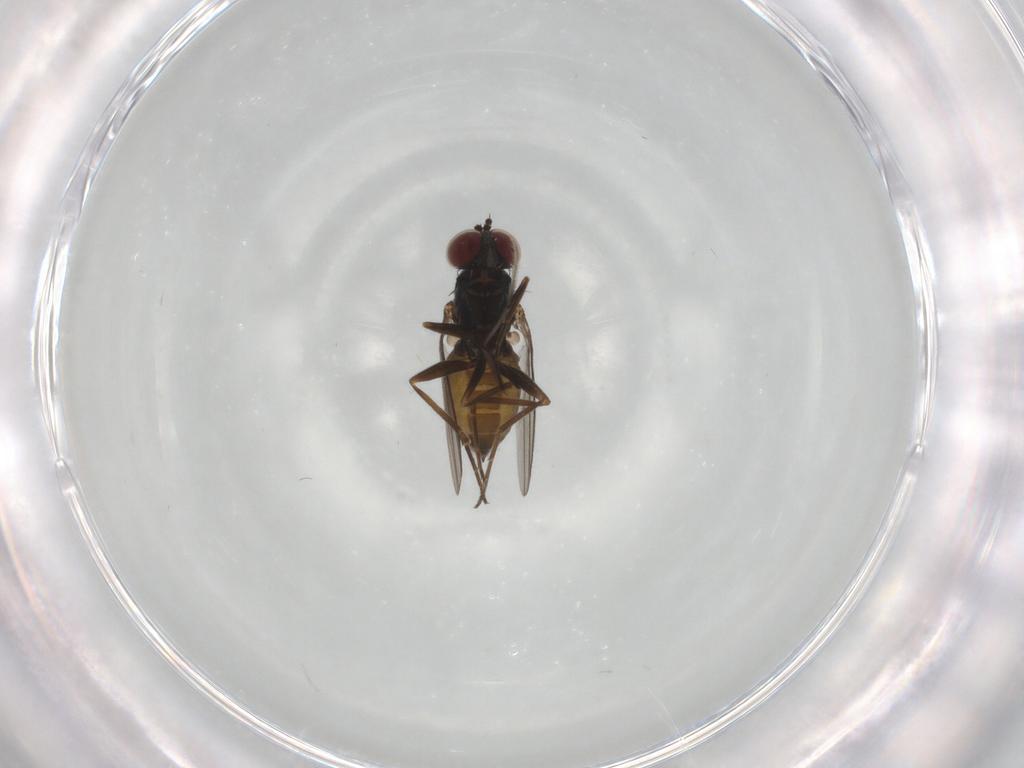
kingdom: Animalia
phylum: Arthropoda
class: Insecta
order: Diptera
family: Dolichopodidae
